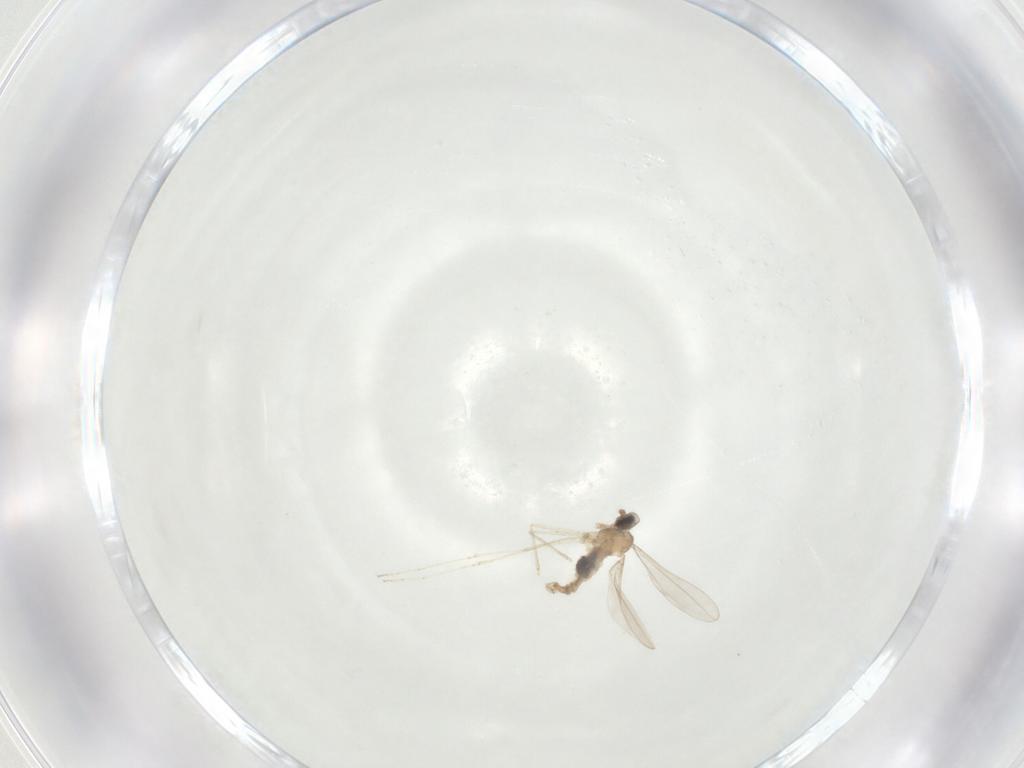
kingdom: Animalia
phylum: Arthropoda
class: Insecta
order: Diptera
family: Cecidomyiidae
